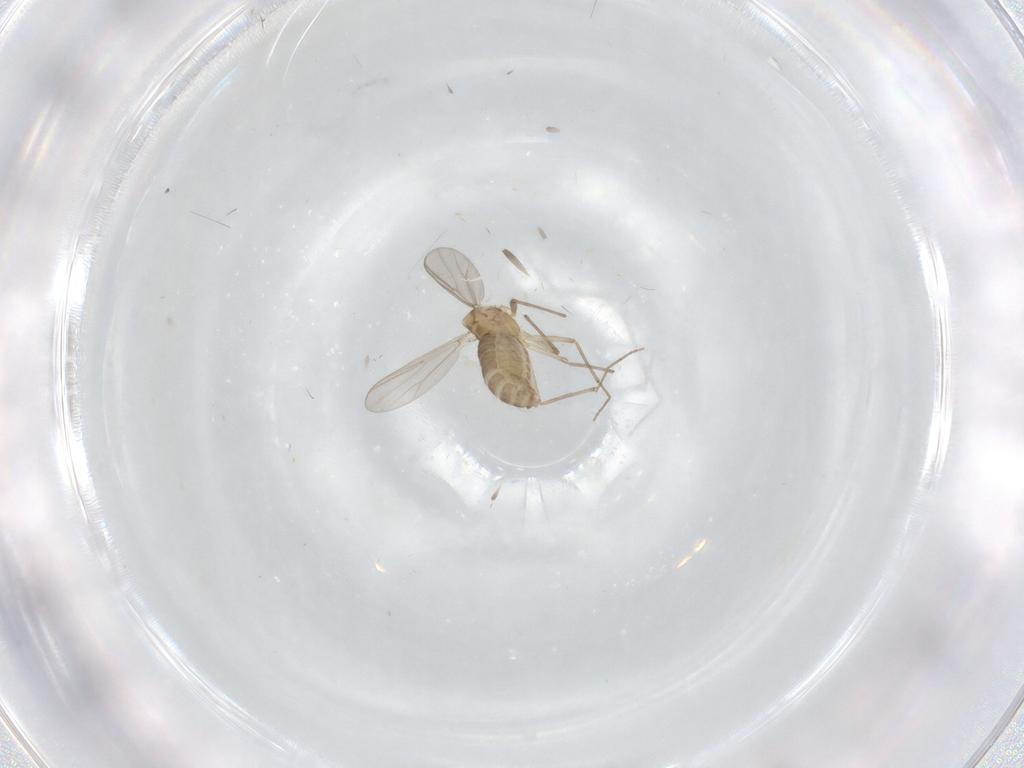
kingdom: Animalia
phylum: Arthropoda
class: Insecta
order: Diptera
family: Chironomidae
